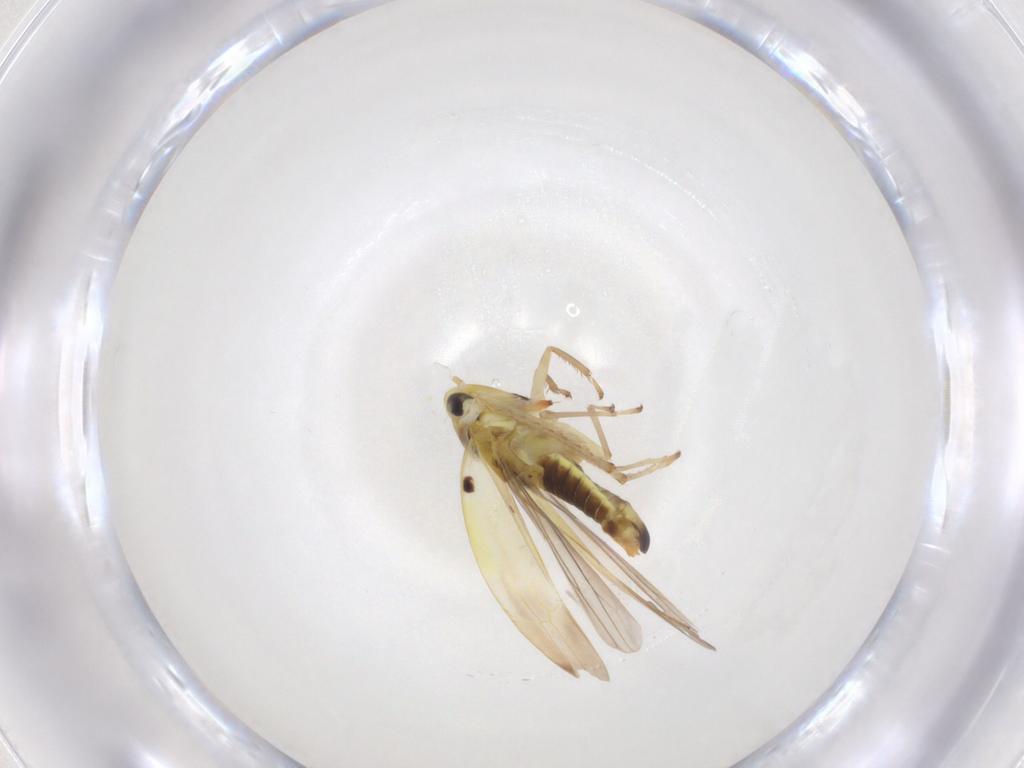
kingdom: Animalia
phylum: Arthropoda
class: Insecta
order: Hemiptera
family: Cicadellidae
